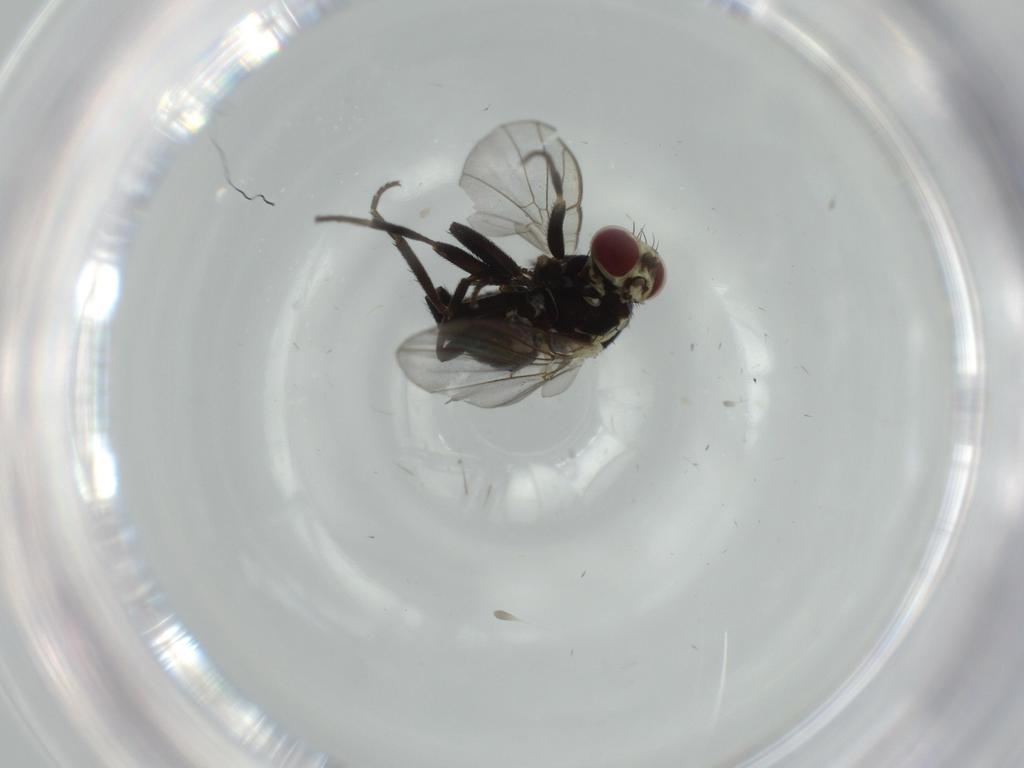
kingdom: Animalia
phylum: Arthropoda
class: Insecta
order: Diptera
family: Agromyzidae
